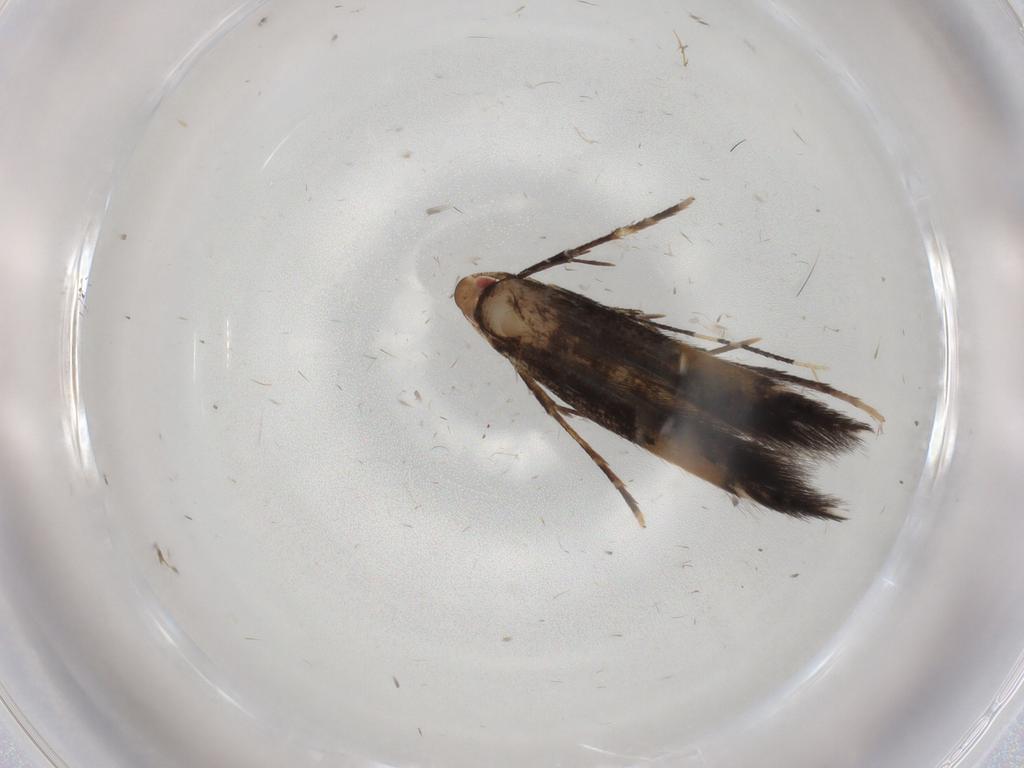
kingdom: Animalia
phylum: Arthropoda
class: Insecta
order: Lepidoptera
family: Cosmopterigidae
